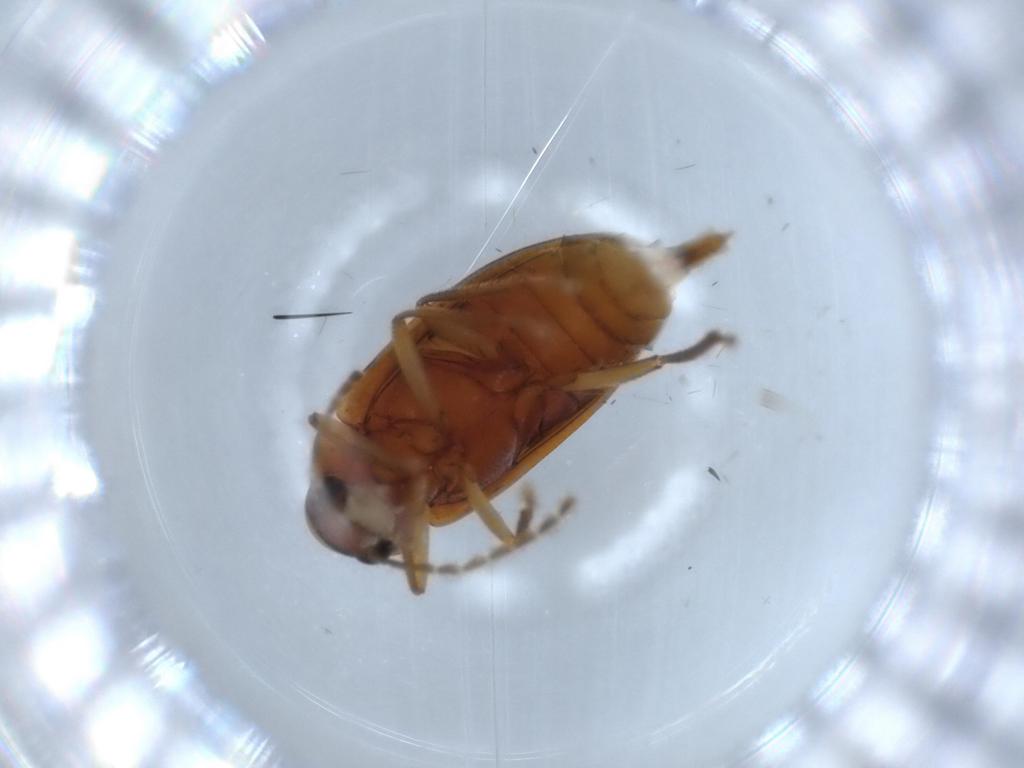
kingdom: Animalia
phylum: Arthropoda
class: Insecta
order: Coleoptera
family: Ptilodactylidae
